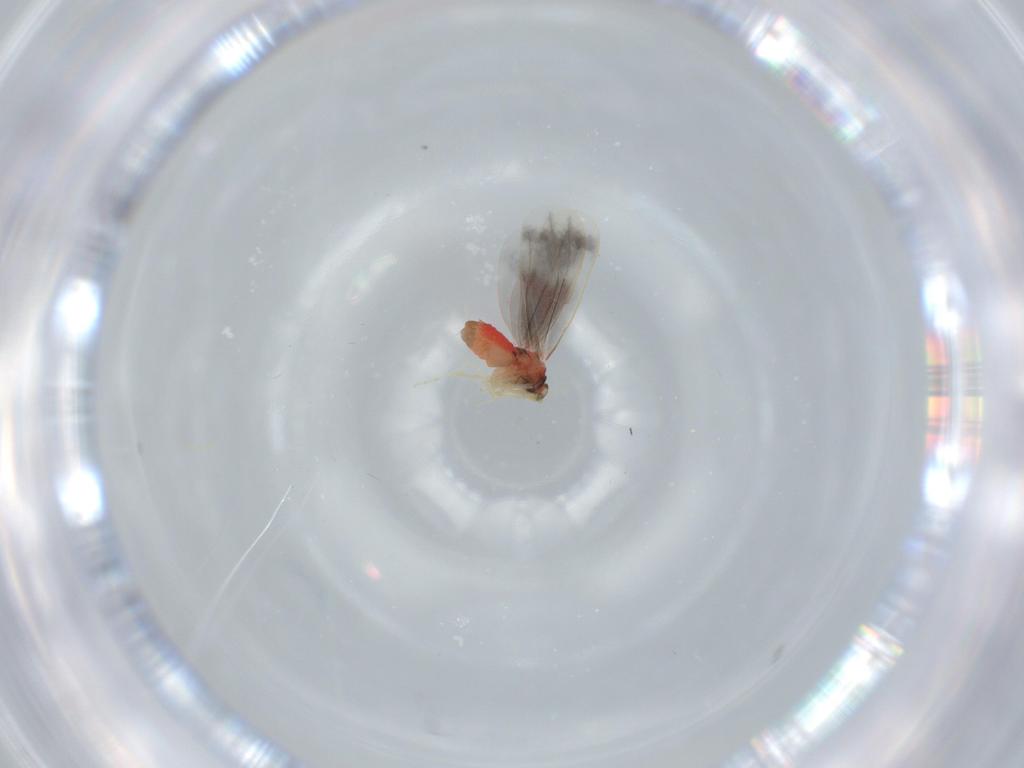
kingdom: Animalia
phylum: Arthropoda
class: Insecta
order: Hemiptera
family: Aleyrodidae
